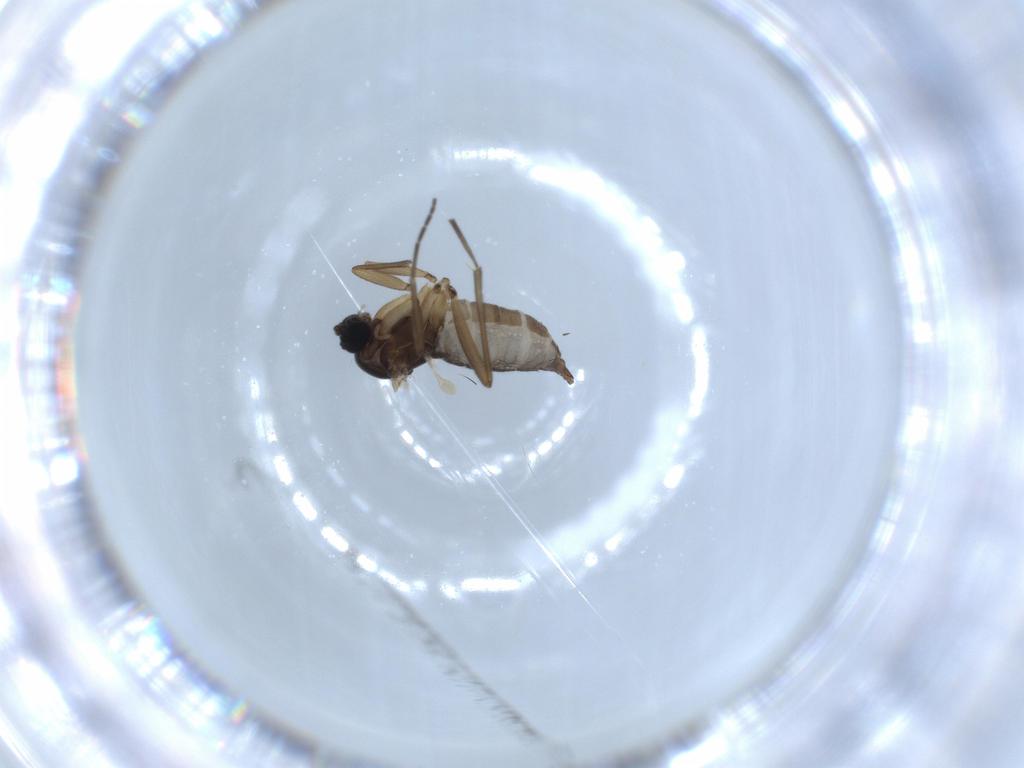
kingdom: Animalia
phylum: Arthropoda
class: Insecta
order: Diptera
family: Sciaridae
